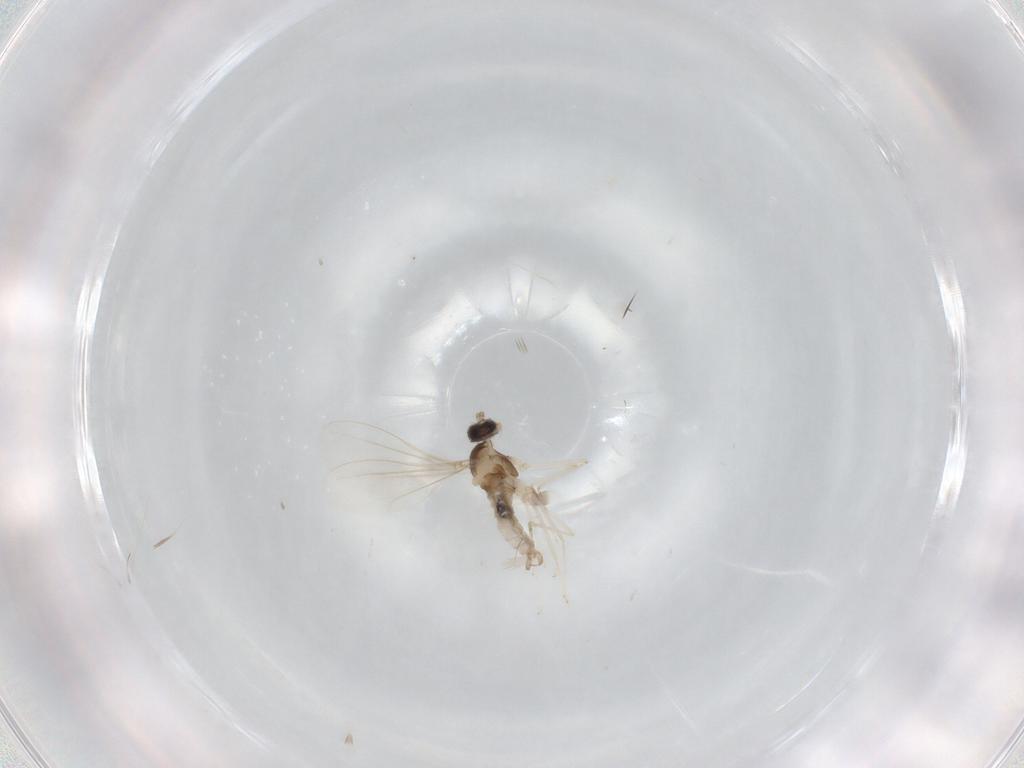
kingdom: Animalia
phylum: Arthropoda
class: Insecta
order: Diptera
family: Cecidomyiidae
